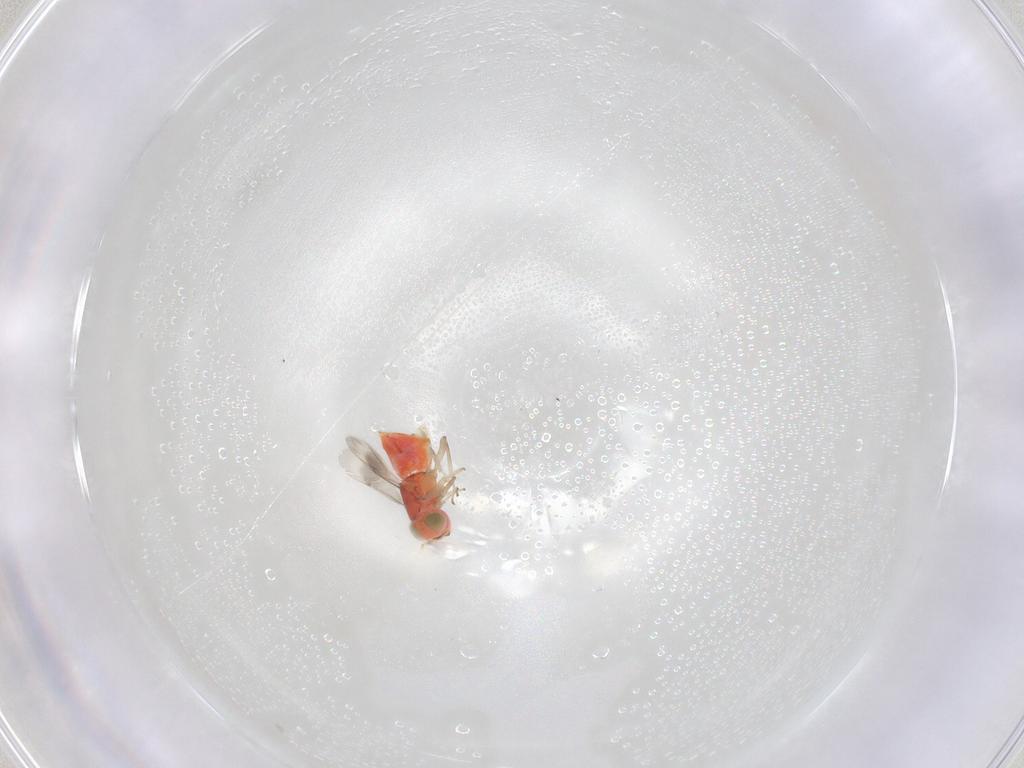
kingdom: Animalia
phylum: Arthropoda
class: Insecta
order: Hymenoptera
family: Encyrtidae
